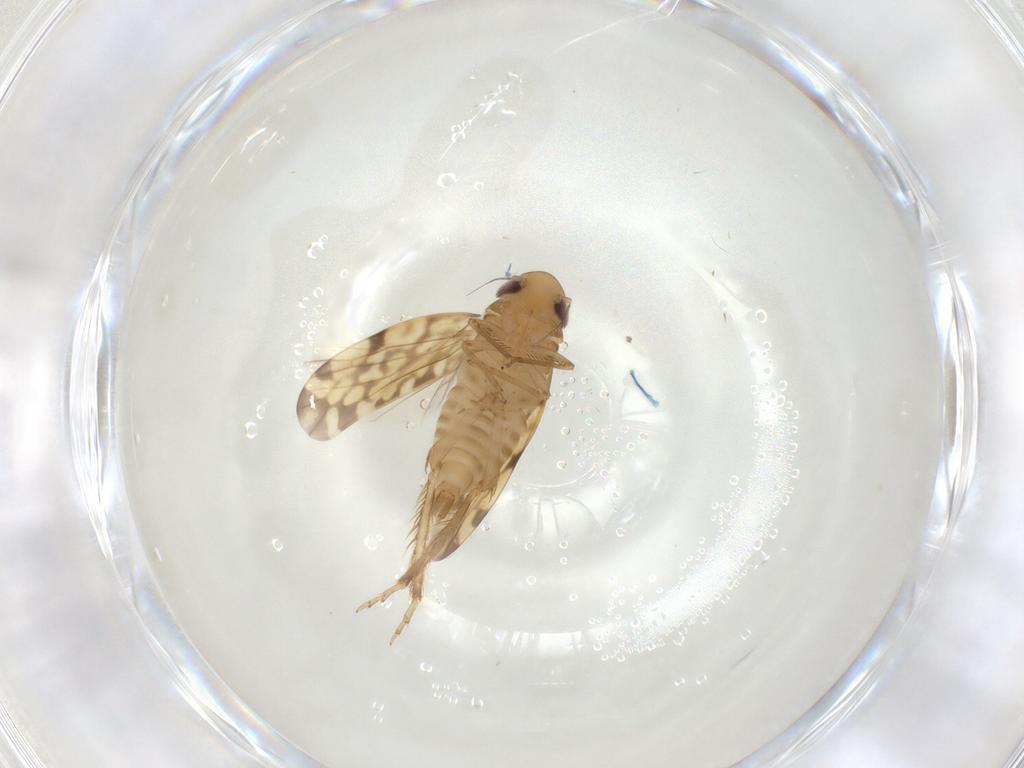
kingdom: Animalia
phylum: Arthropoda
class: Insecta
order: Hemiptera
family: Cicadellidae
